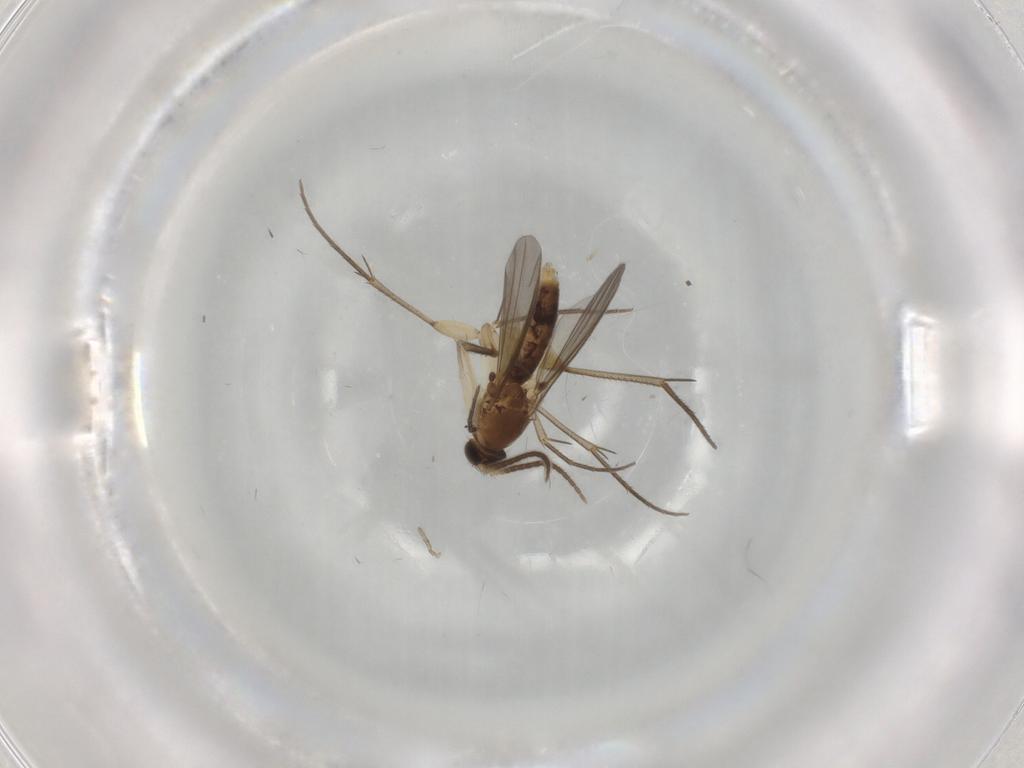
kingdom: Animalia
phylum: Arthropoda
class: Insecta
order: Diptera
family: Mycetophilidae
